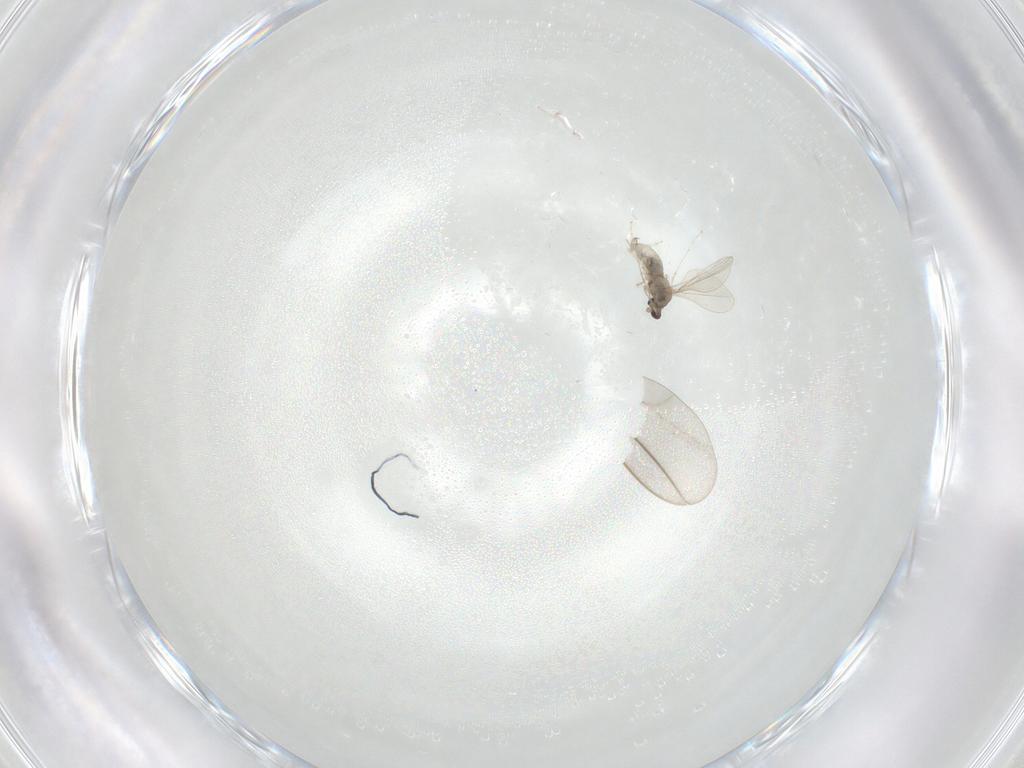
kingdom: Animalia
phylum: Arthropoda
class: Insecta
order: Diptera
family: Cecidomyiidae
